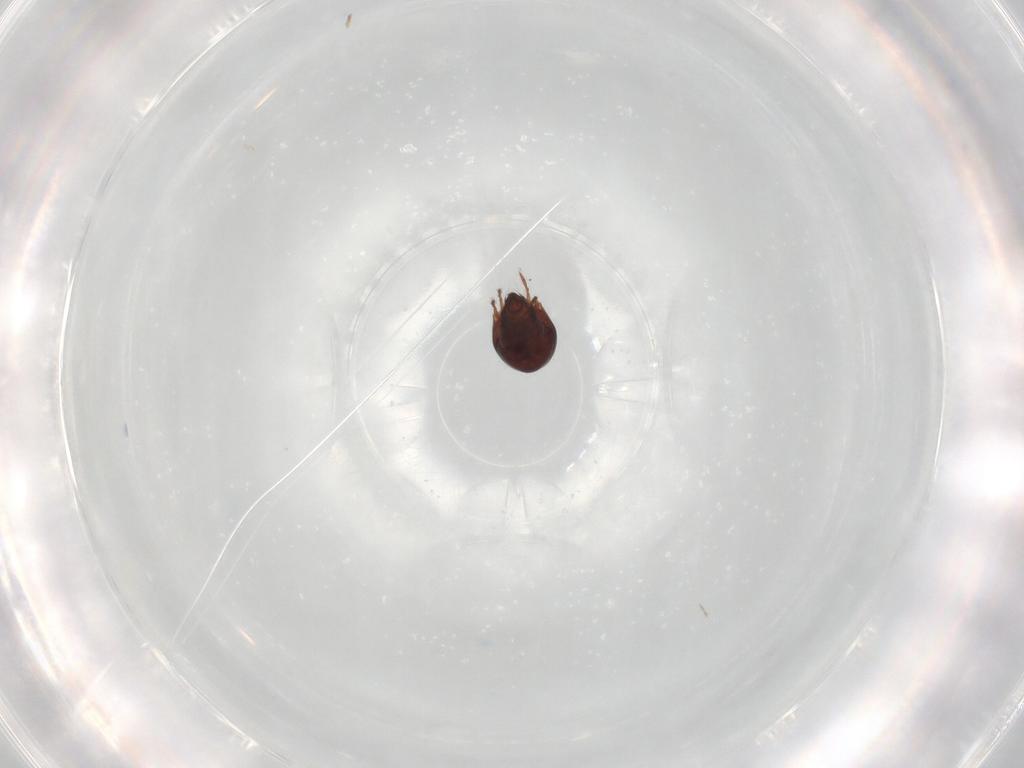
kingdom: Animalia
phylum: Arthropoda
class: Arachnida
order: Sarcoptiformes
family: Humerobatidae
